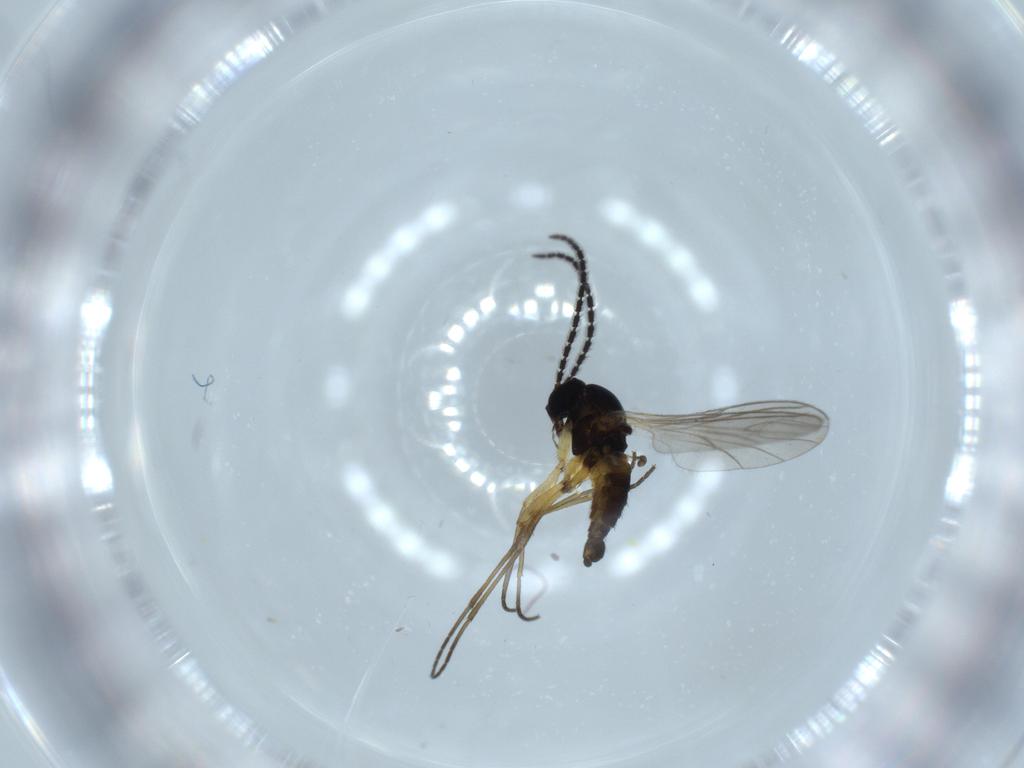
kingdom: Animalia
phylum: Arthropoda
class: Insecta
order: Diptera
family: Sciaridae
